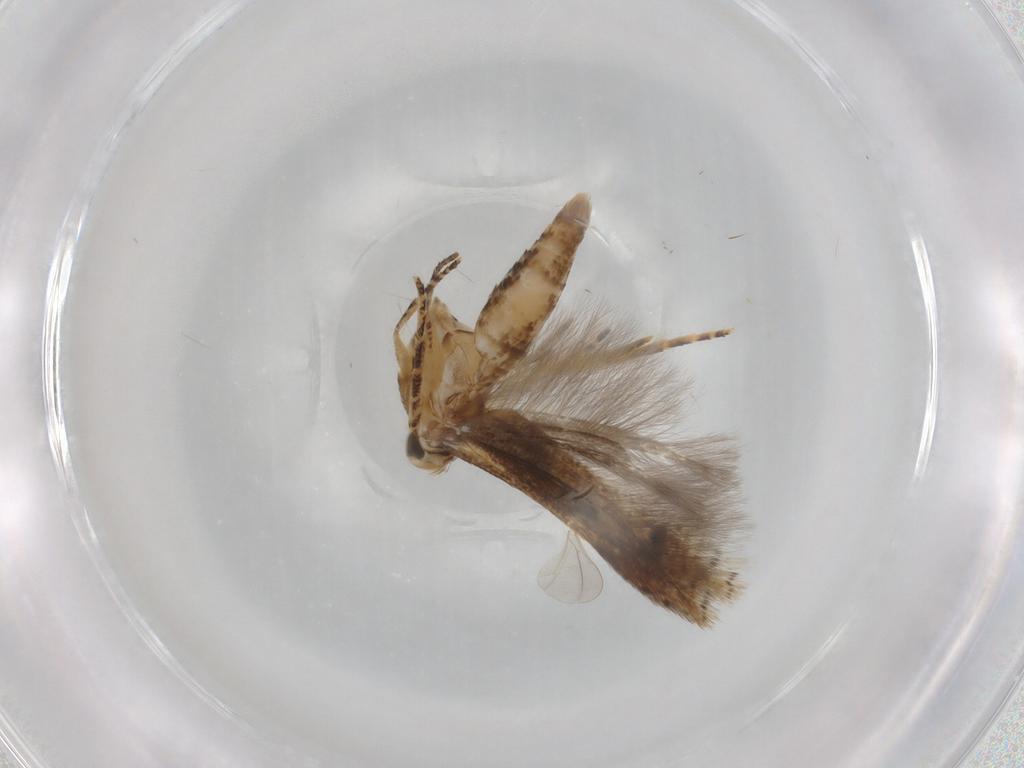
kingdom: Animalia
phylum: Arthropoda
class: Insecta
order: Lepidoptera
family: Gelechiidae
